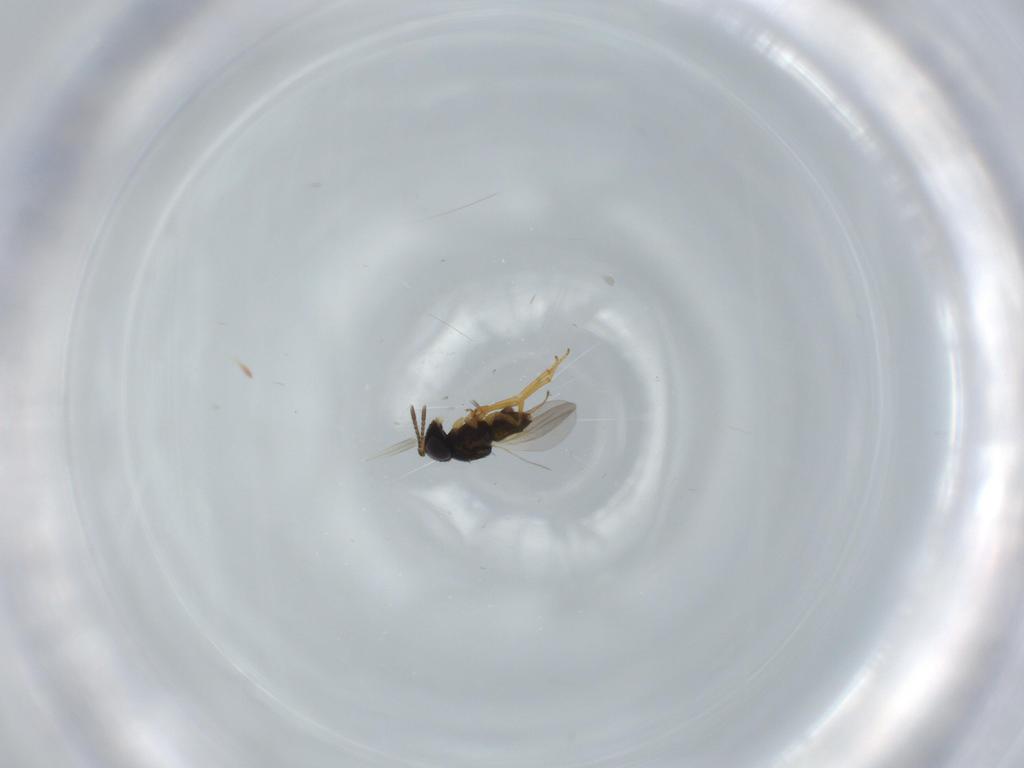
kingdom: Animalia
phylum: Arthropoda
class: Insecta
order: Hymenoptera
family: Encyrtidae
